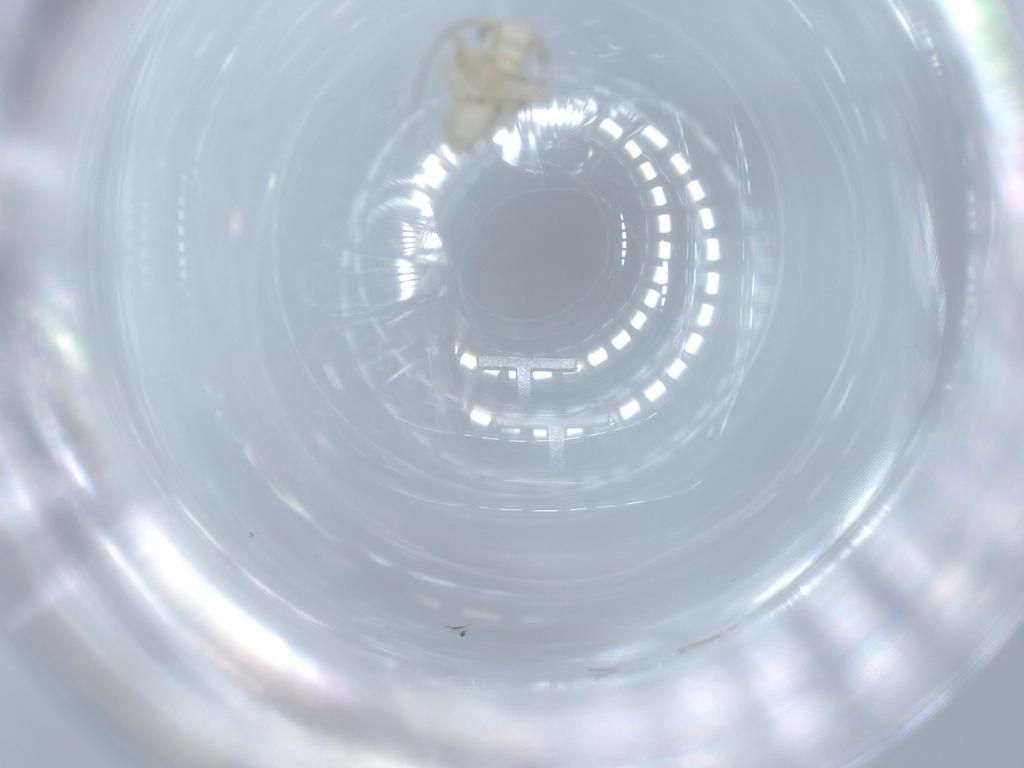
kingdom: Animalia
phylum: Arthropoda
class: Insecta
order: Psocodea
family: Caeciliusidae
